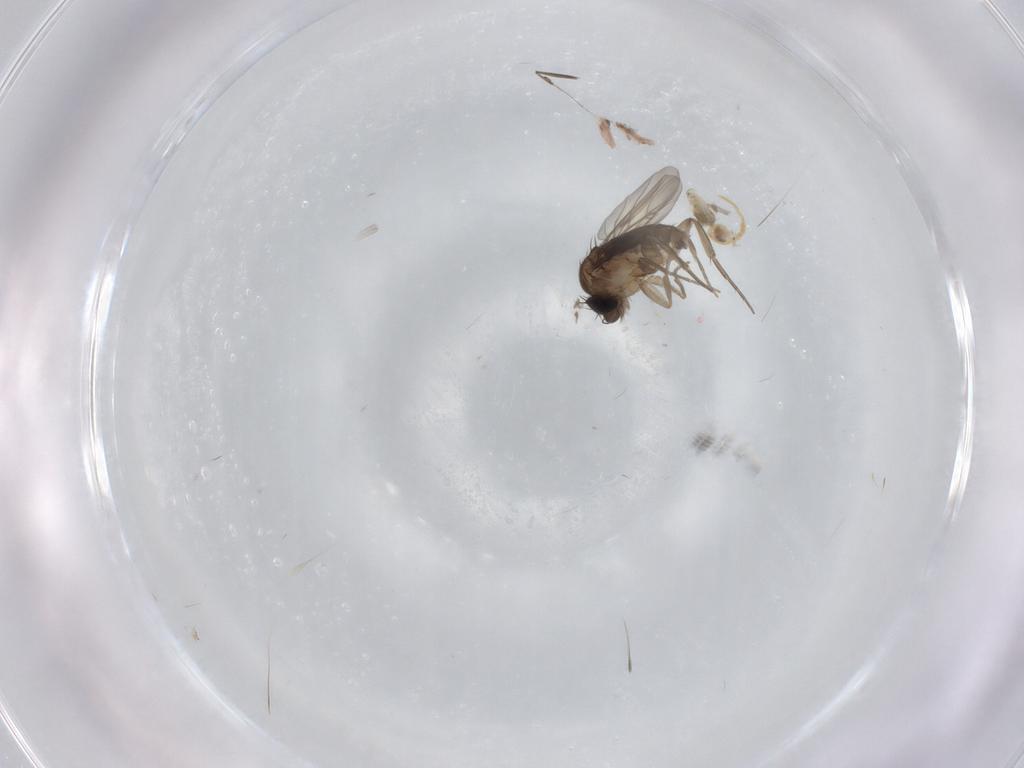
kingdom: Animalia
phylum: Arthropoda
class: Insecta
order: Diptera
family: Phoridae
